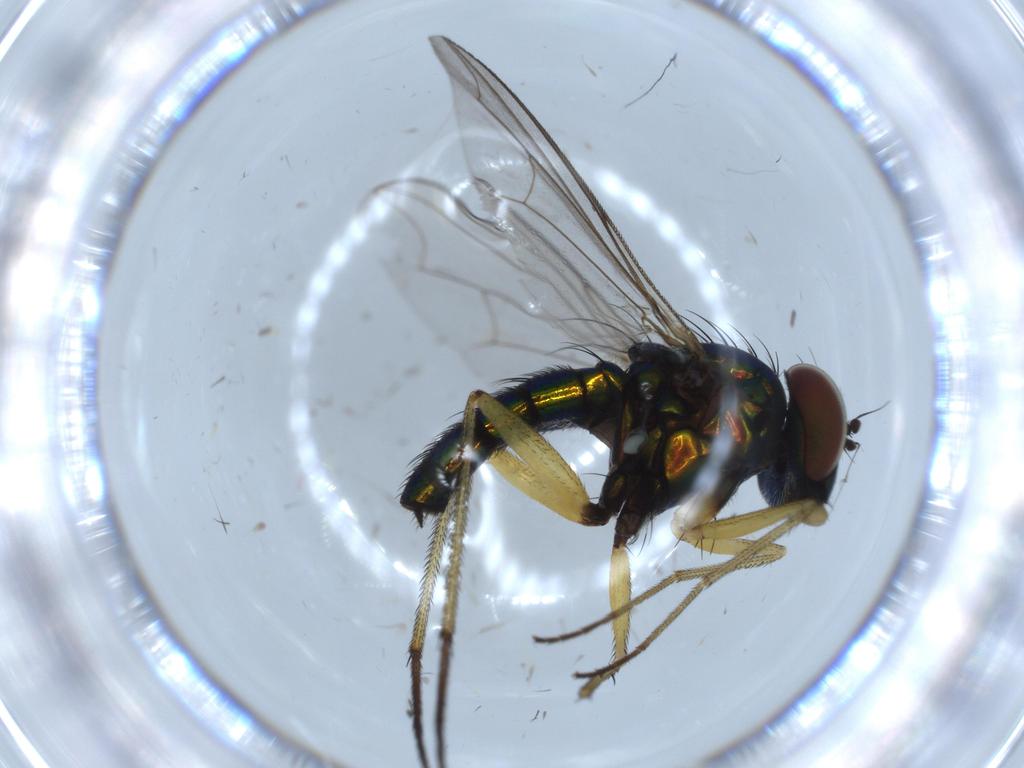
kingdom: Animalia
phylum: Arthropoda
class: Insecta
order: Diptera
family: Dolichopodidae
